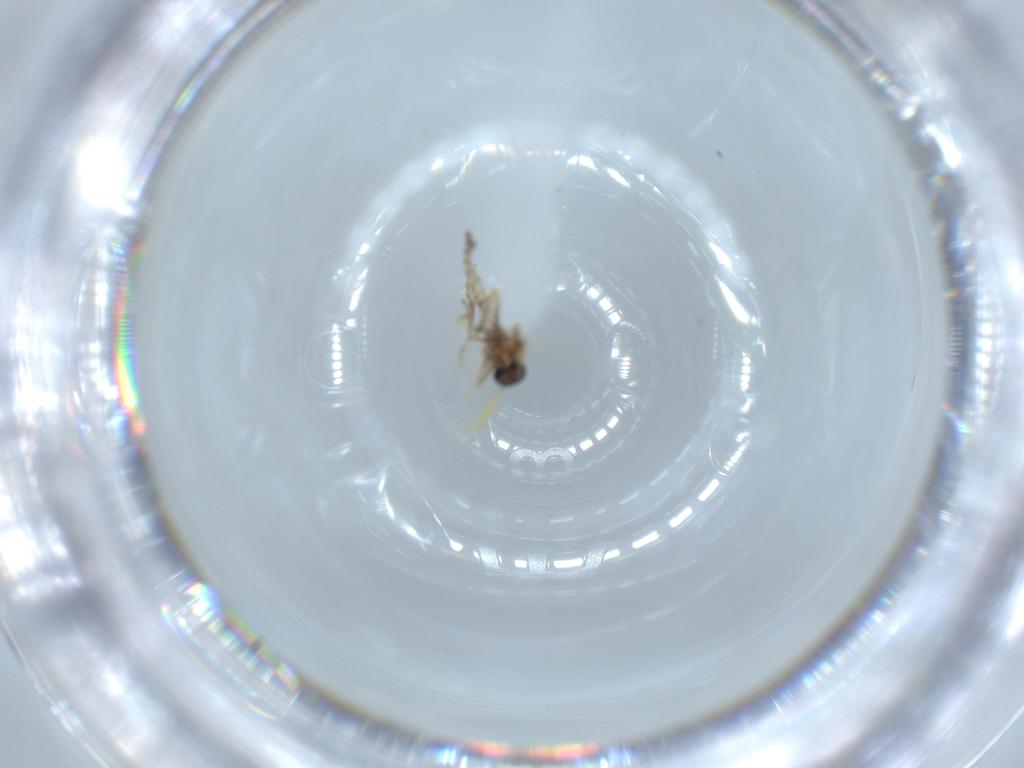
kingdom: Animalia
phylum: Arthropoda
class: Insecta
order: Diptera
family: Ceratopogonidae
